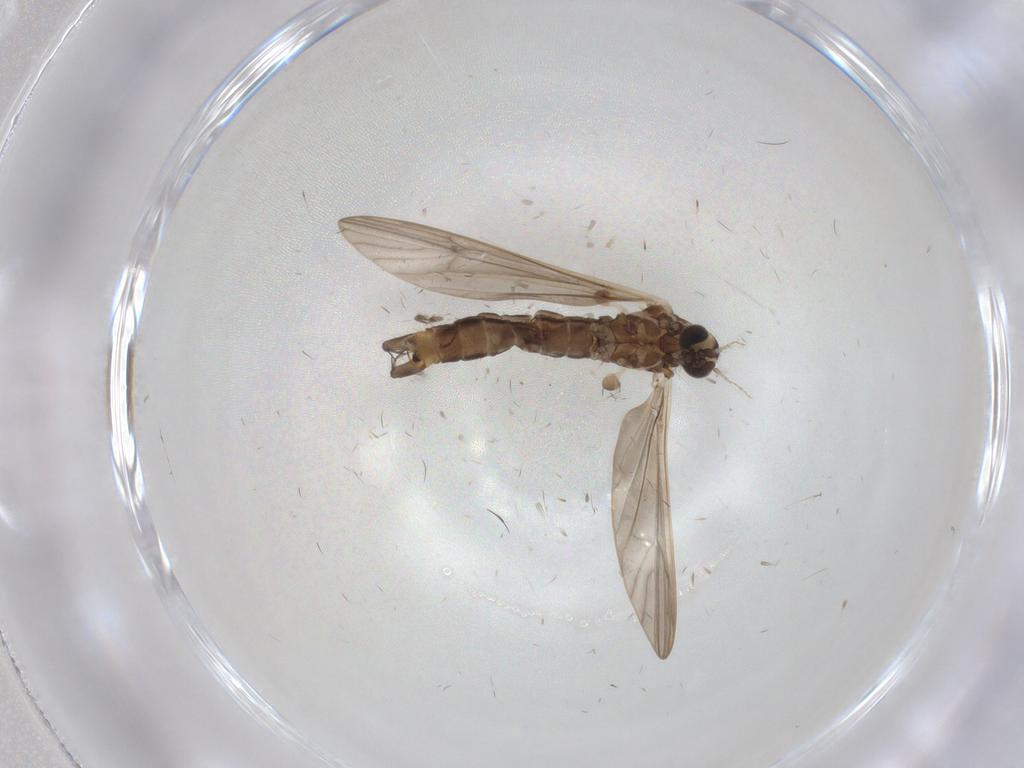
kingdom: Animalia
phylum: Arthropoda
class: Insecta
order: Diptera
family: Limoniidae
